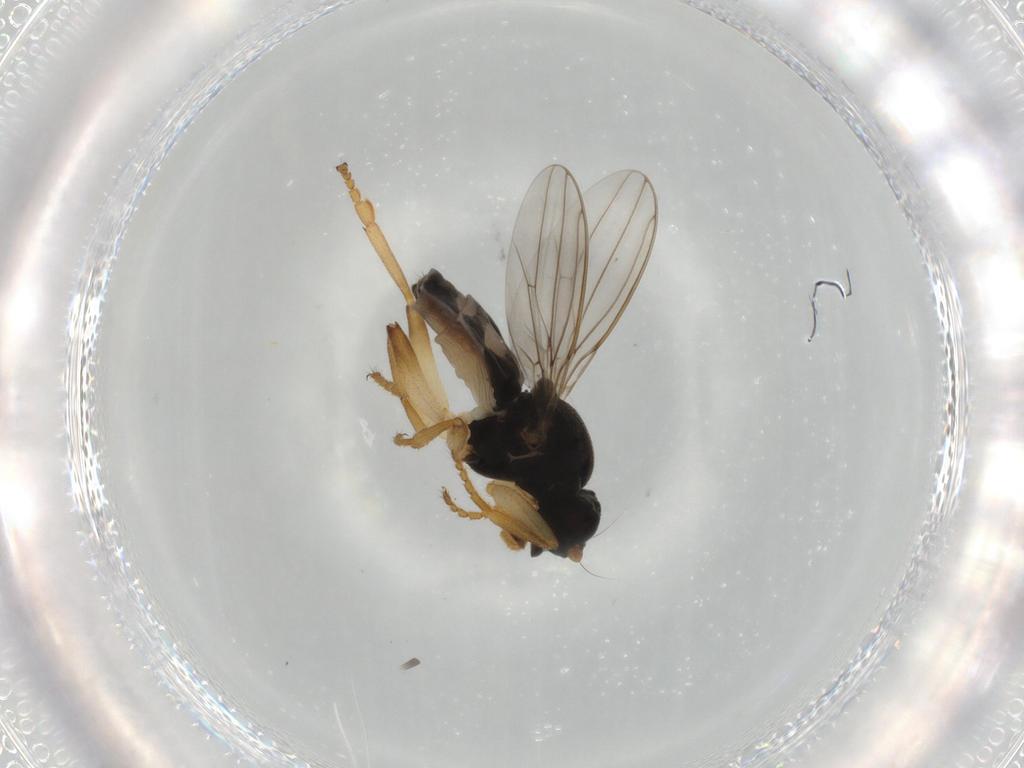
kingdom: Animalia
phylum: Arthropoda
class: Insecta
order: Diptera
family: Sphaeroceridae
